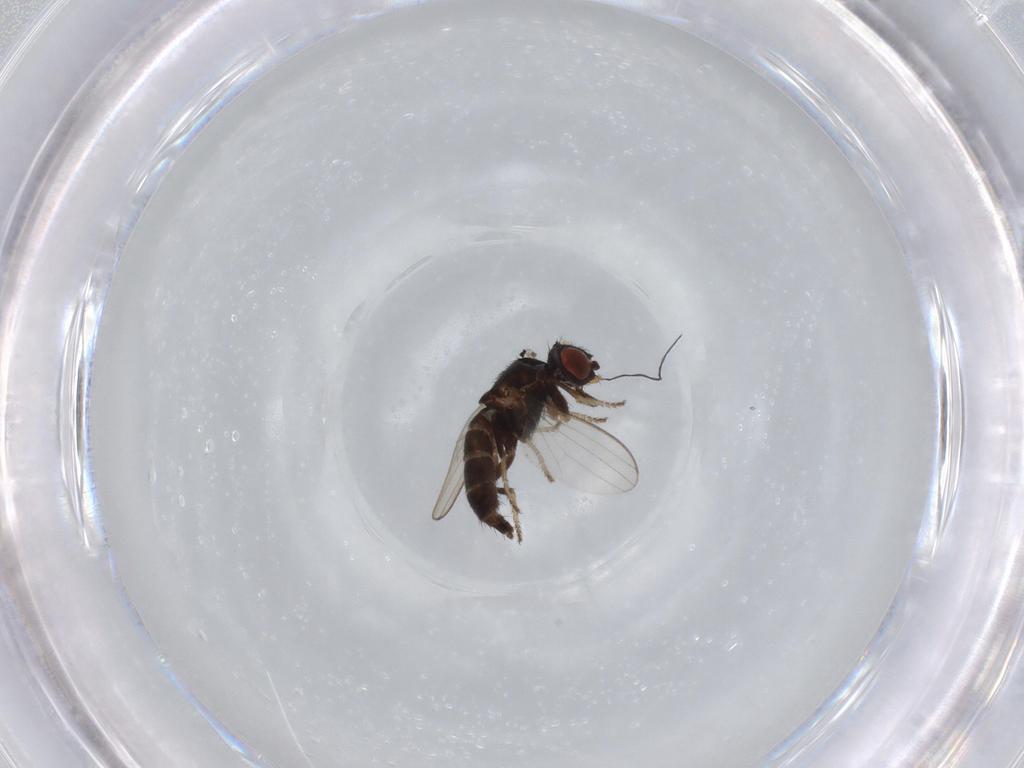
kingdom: Animalia
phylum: Arthropoda
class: Insecta
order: Diptera
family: Milichiidae
